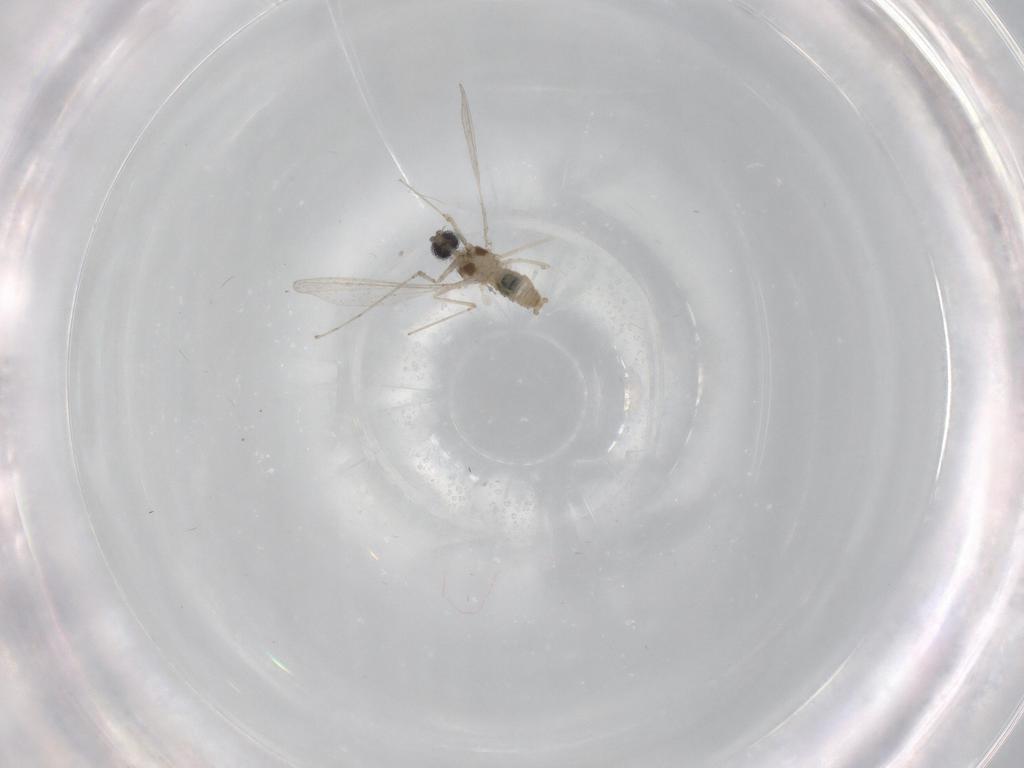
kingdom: Animalia
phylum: Arthropoda
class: Insecta
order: Diptera
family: Cecidomyiidae
